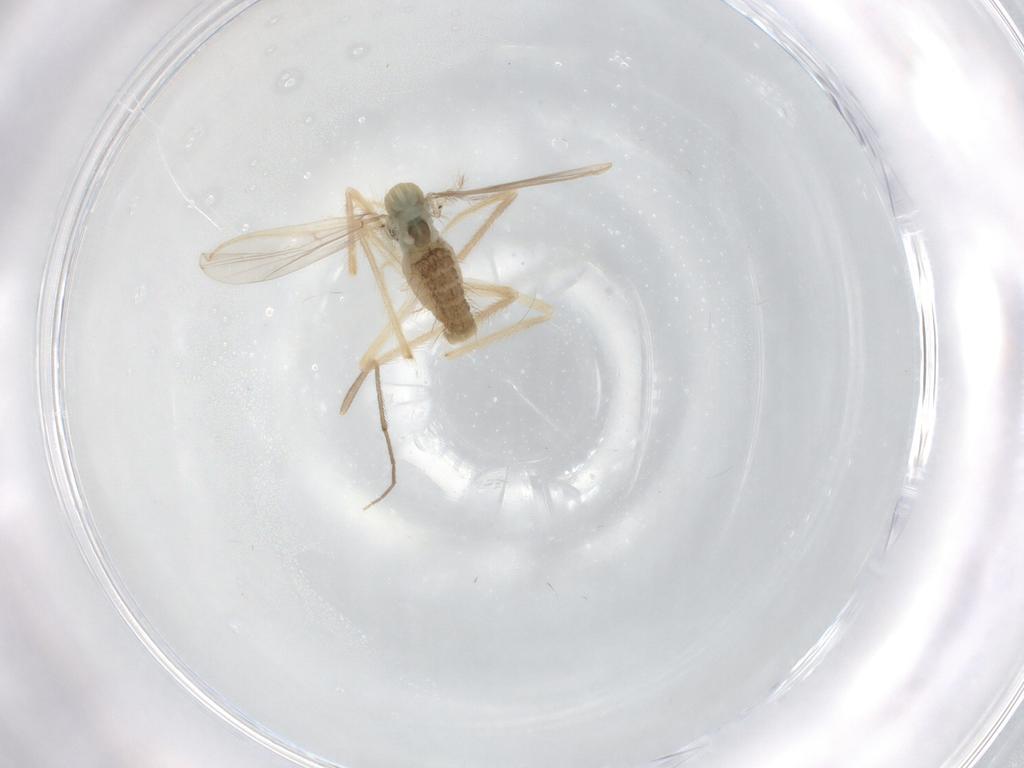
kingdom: Animalia
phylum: Arthropoda
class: Insecta
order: Diptera
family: Chironomidae
